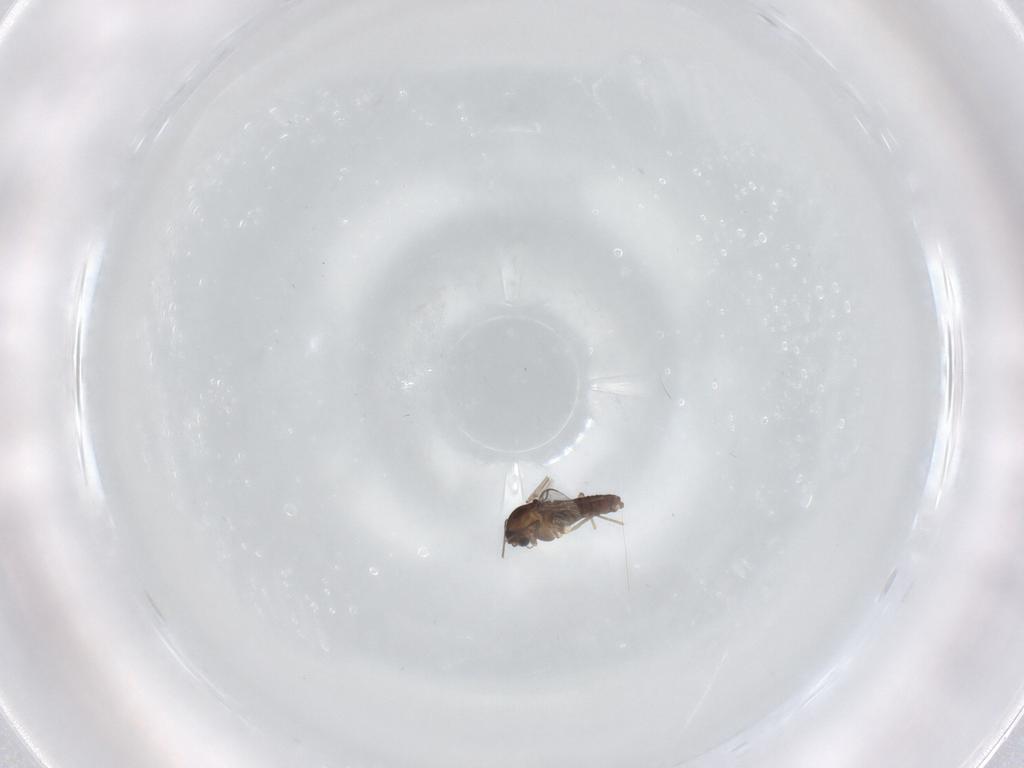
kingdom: Animalia
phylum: Arthropoda
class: Insecta
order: Diptera
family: Chironomidae
